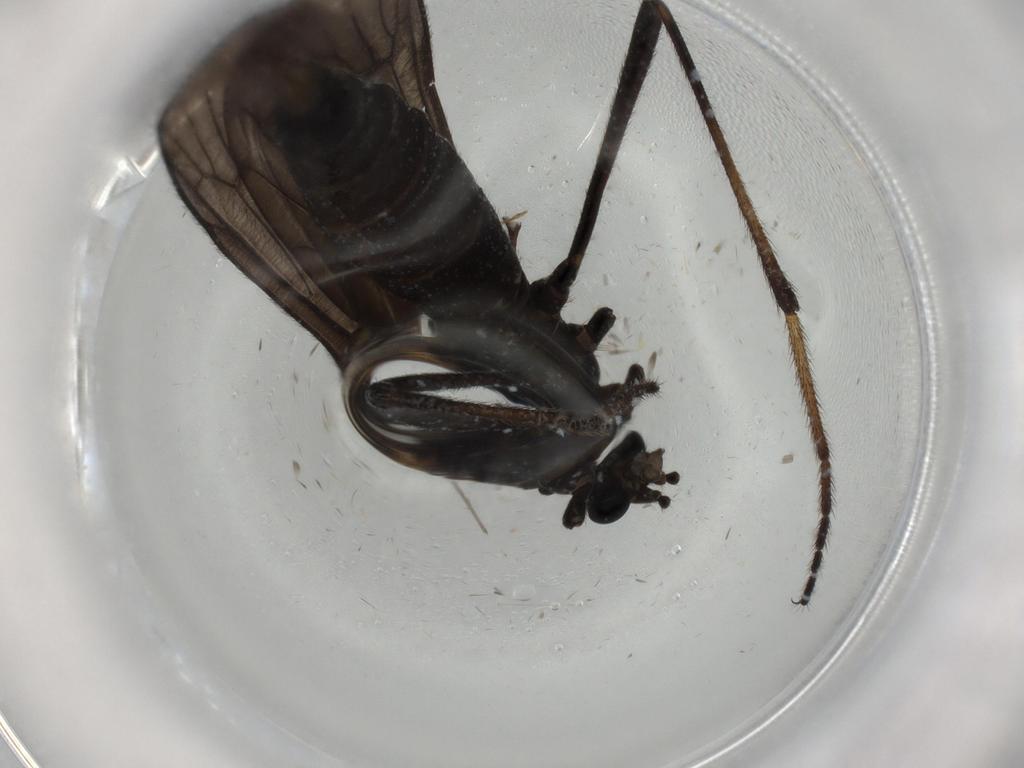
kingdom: Animalia
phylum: Arthropoda
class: Insecta
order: Diptera
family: Limoniidae
